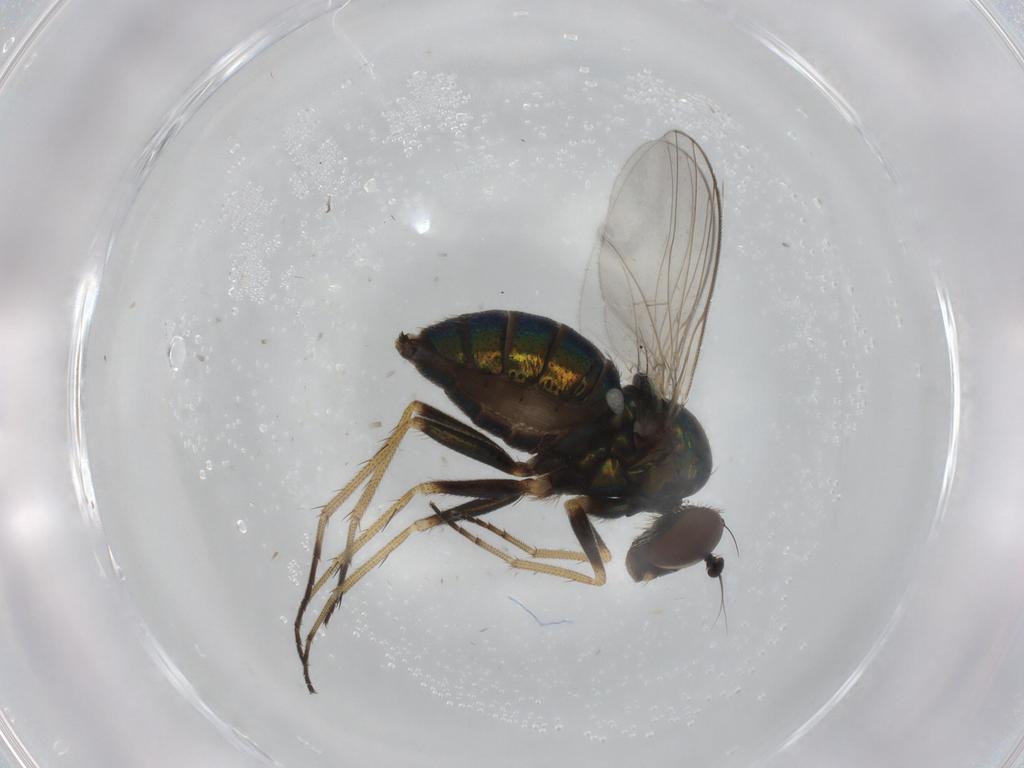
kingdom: Animalia
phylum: Arthropoda
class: Insecta
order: Diptera
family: Dolichopodidae
